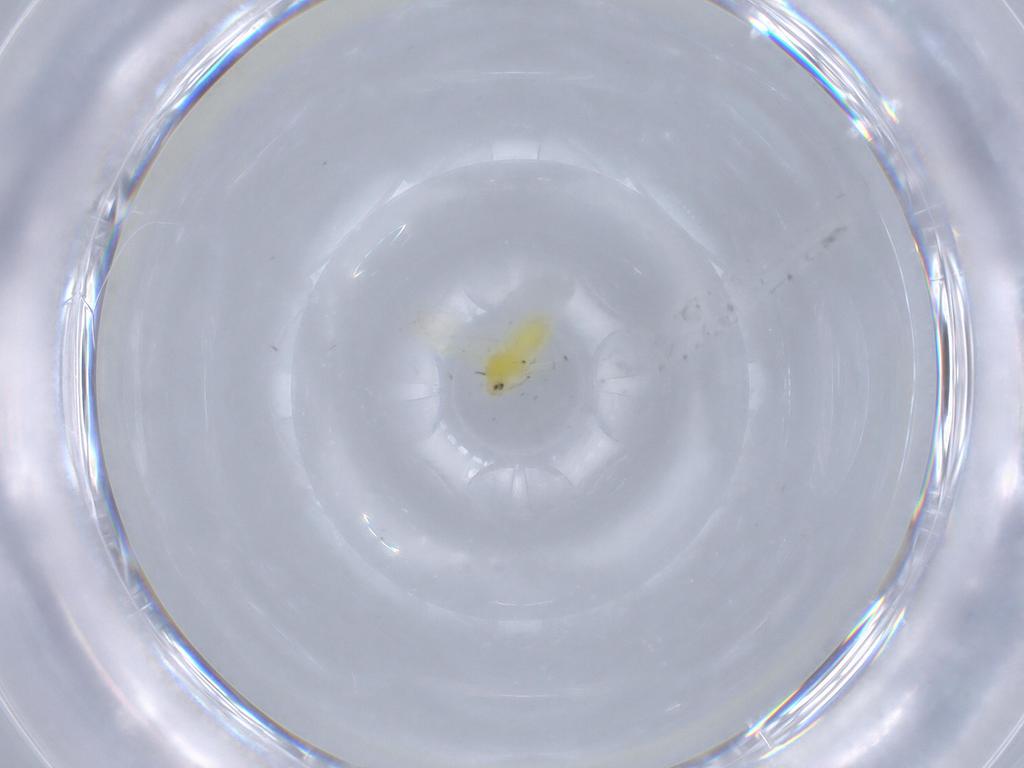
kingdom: Animalia
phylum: Arthropoda
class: Insecta
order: Hemiptera
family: Aleyrodidae
